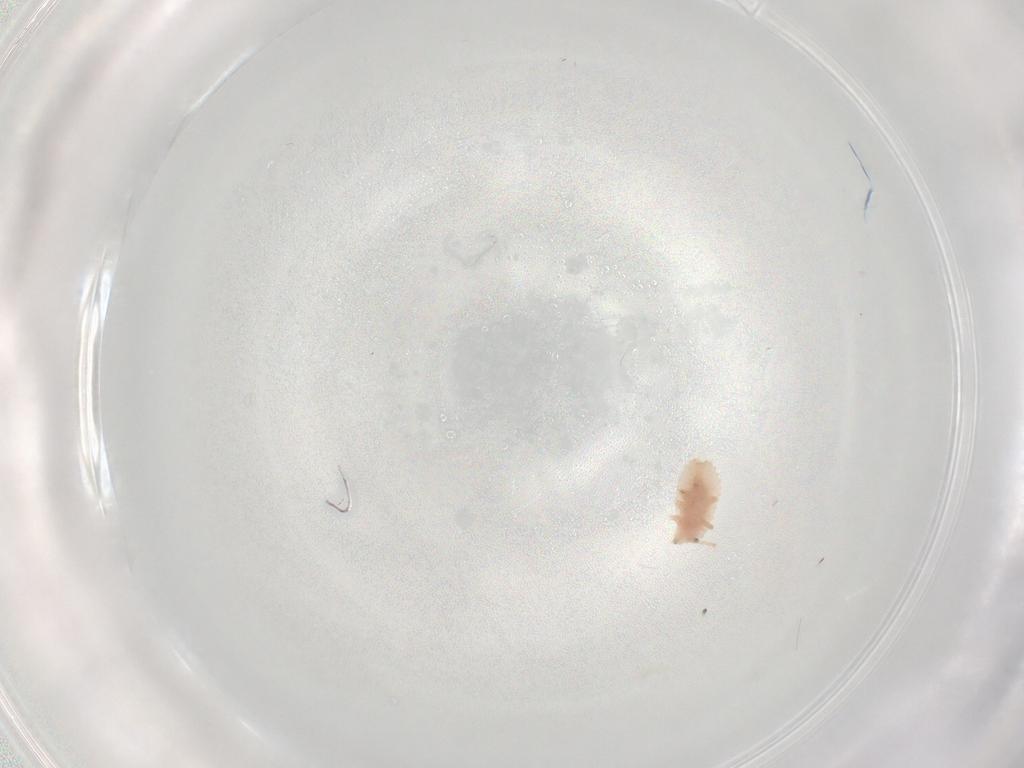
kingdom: Animalia
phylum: Arthropoda
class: Insecta
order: Hemiptera
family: Coccoidea_incertae_sedis
